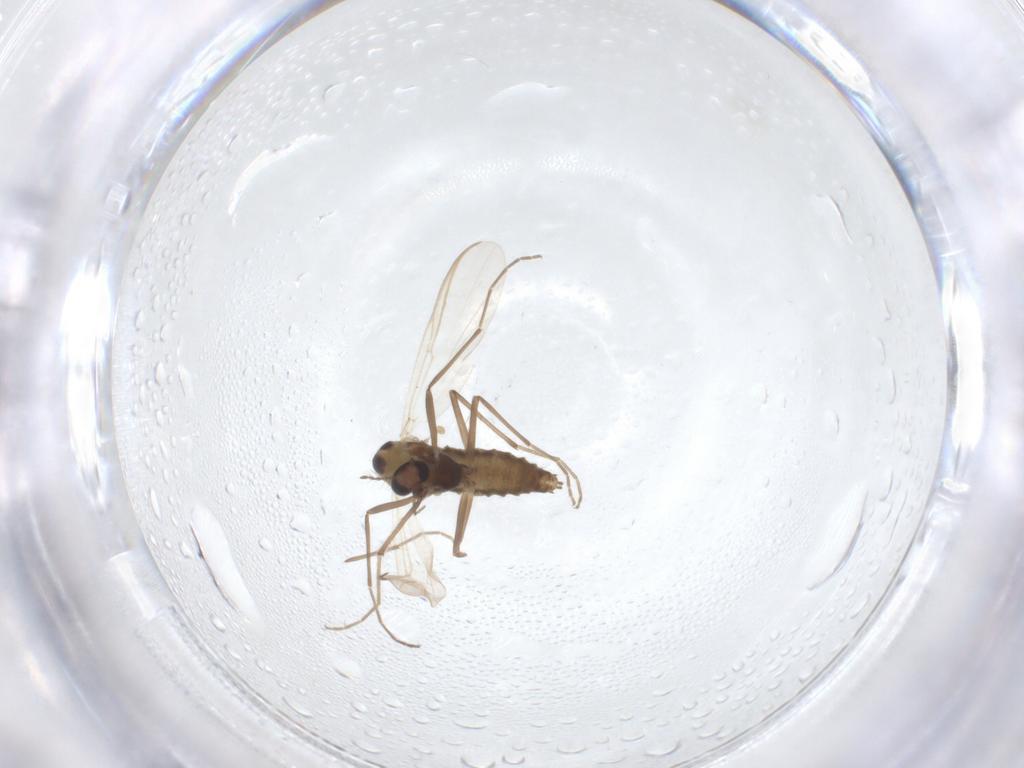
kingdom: Animalia
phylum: Arthropoda
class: Insecta
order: Diptera
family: Chironomidae
